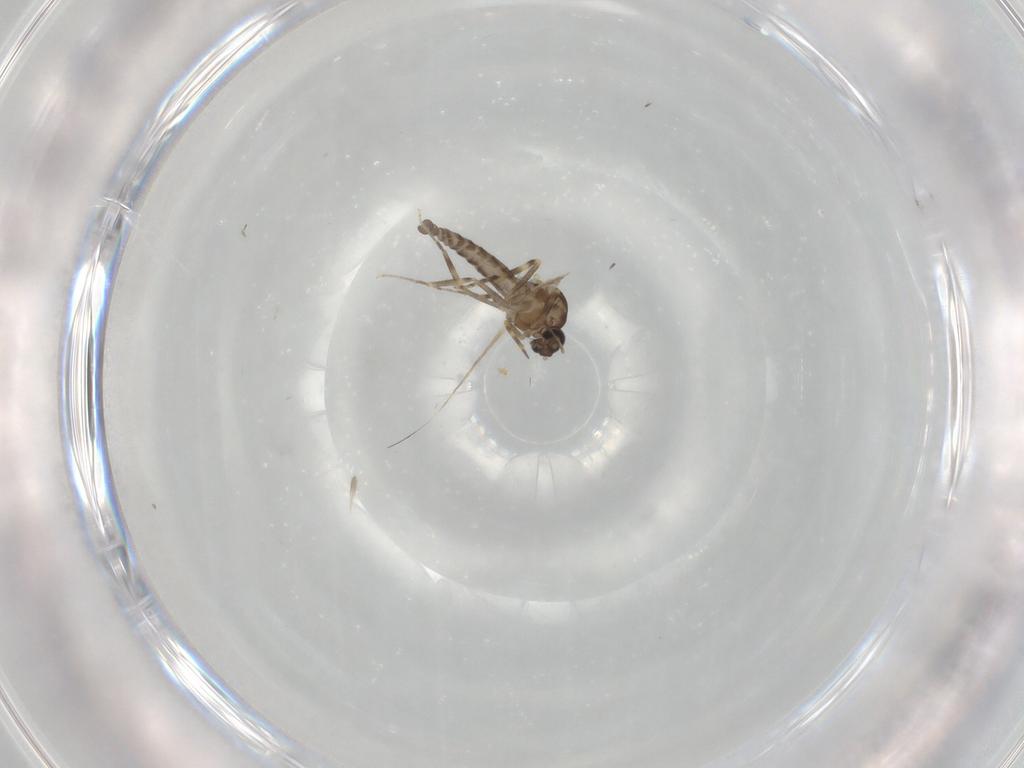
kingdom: Animalia
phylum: Arthropoda
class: Insecta
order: Diptera
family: Ceratopogonidae
